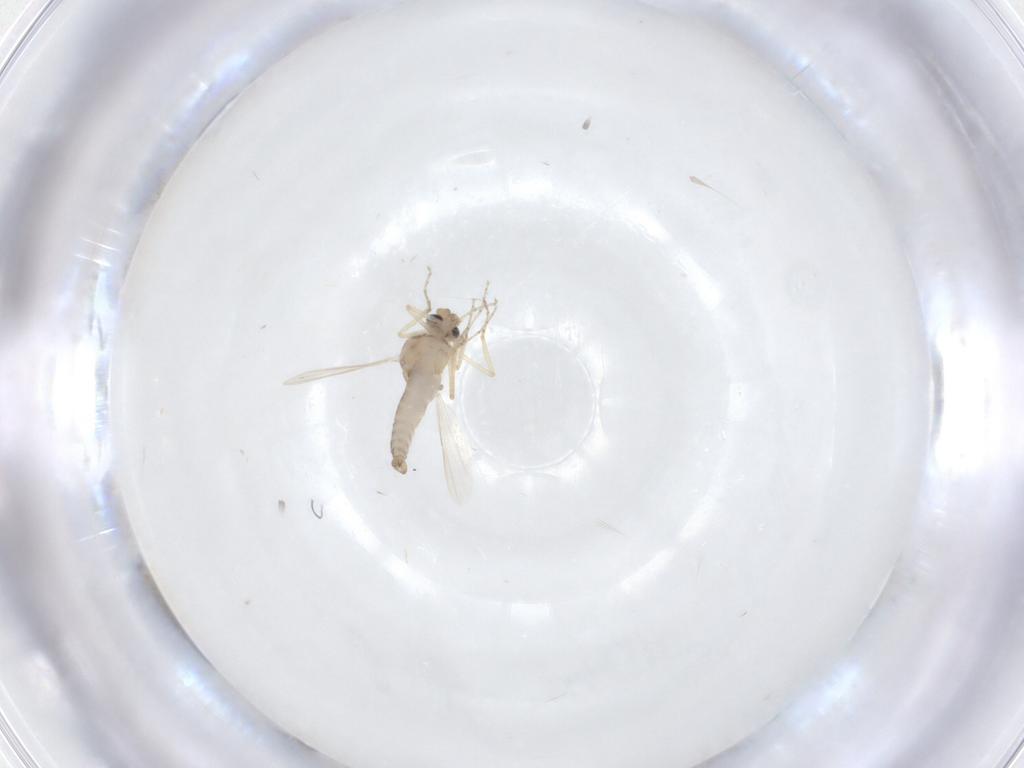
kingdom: Animalia
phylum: Arthropoda
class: Insecta
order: Diptera
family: Ceratopogonidae
